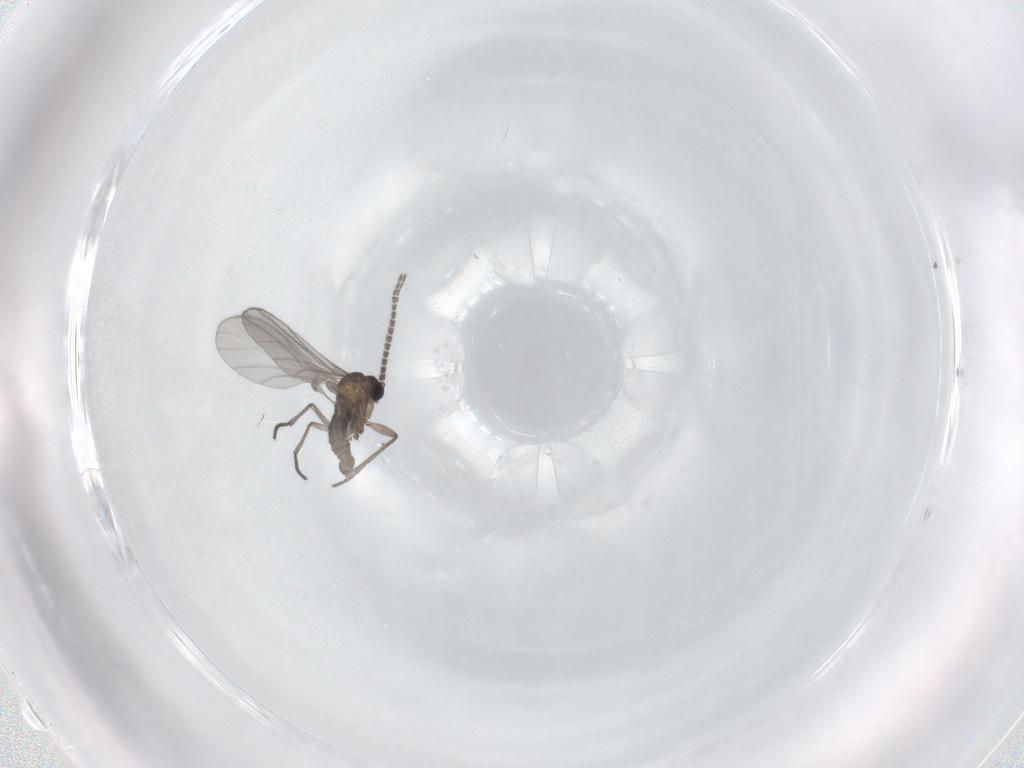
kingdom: Animalia
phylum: Arthropoda
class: Insecta
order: Diptera
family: Sciaridae
